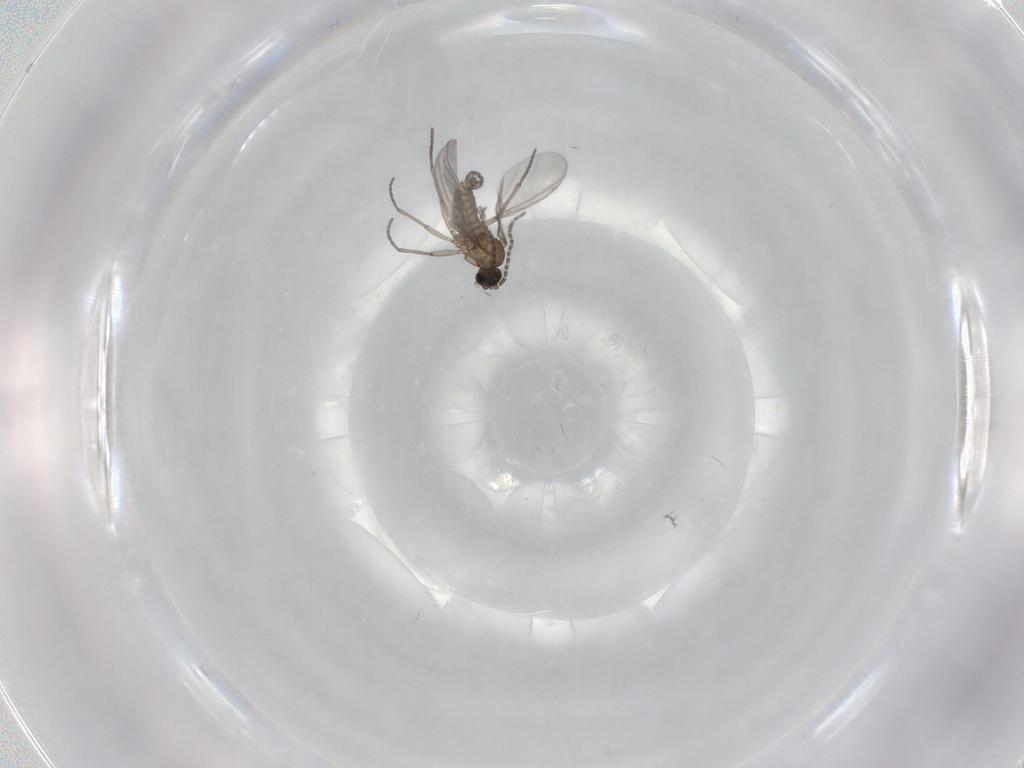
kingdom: Animalia
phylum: Arthropoda
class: Insecta
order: Diptera
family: Sciaridae
